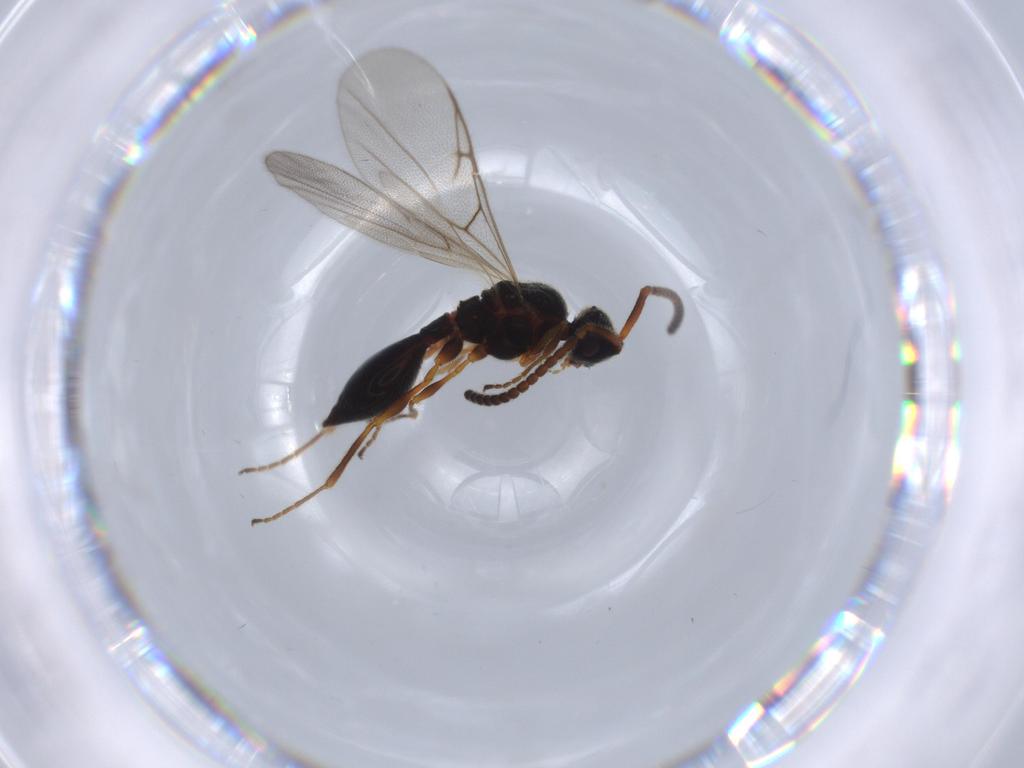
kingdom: Animalia
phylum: Arthropoda
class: Insecta
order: Hymenoptera
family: Diapriidae
